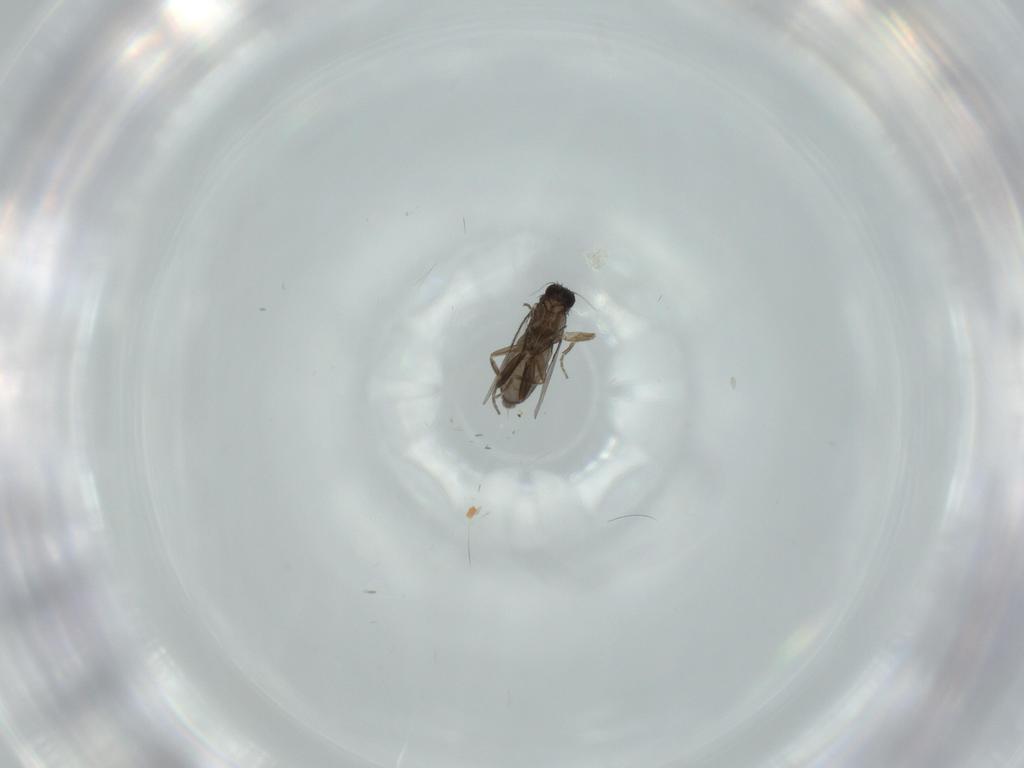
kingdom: Animalia
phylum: Arthropoda
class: Insecta
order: Diptera
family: Phoridae
